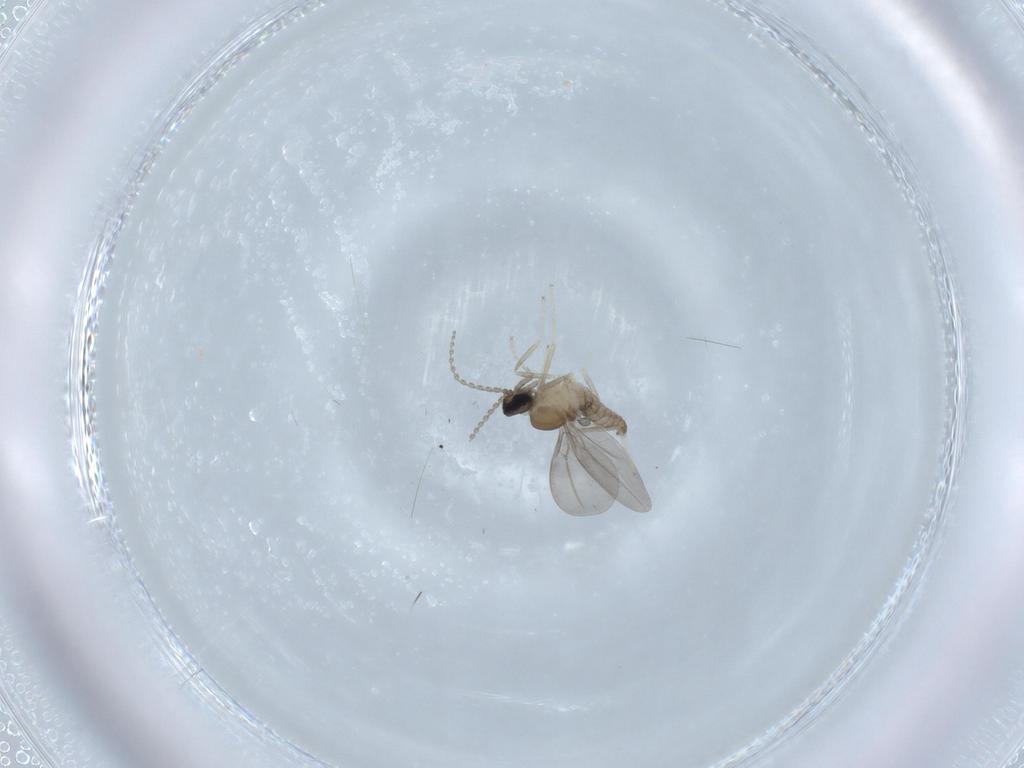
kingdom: Animalia
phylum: Arthropoda
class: Insecta
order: Diptera
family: Cecidomyiidae
